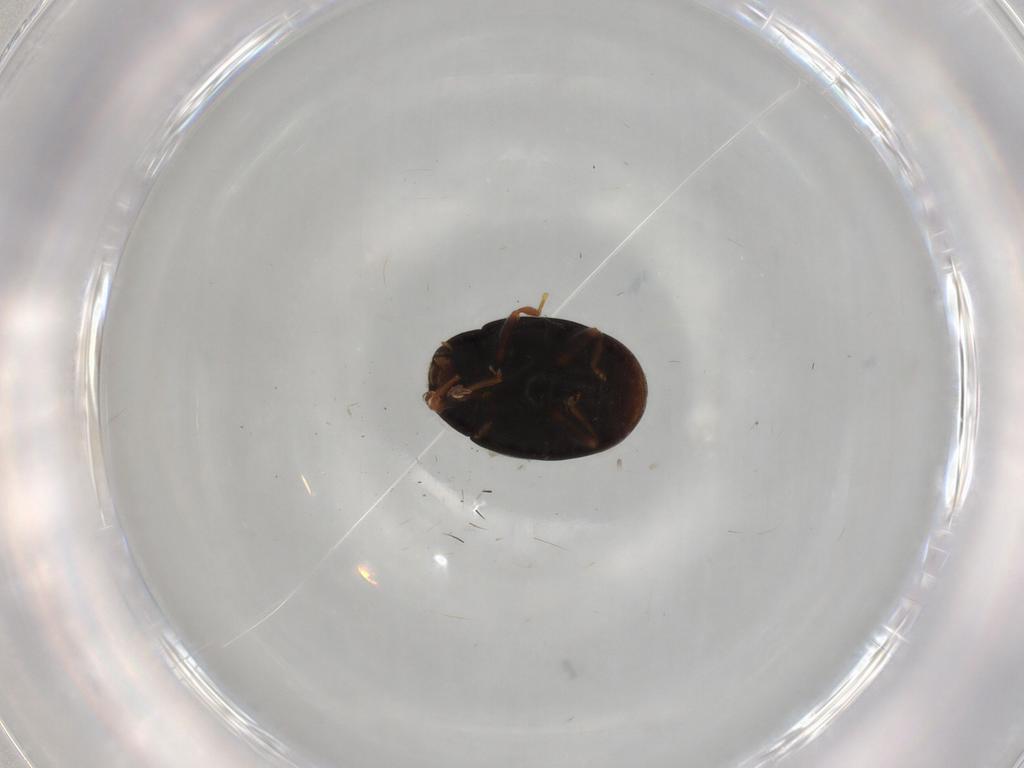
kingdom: Animalia
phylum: Arthropoda
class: Insecta
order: Coleoptera
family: Coccinellidae
